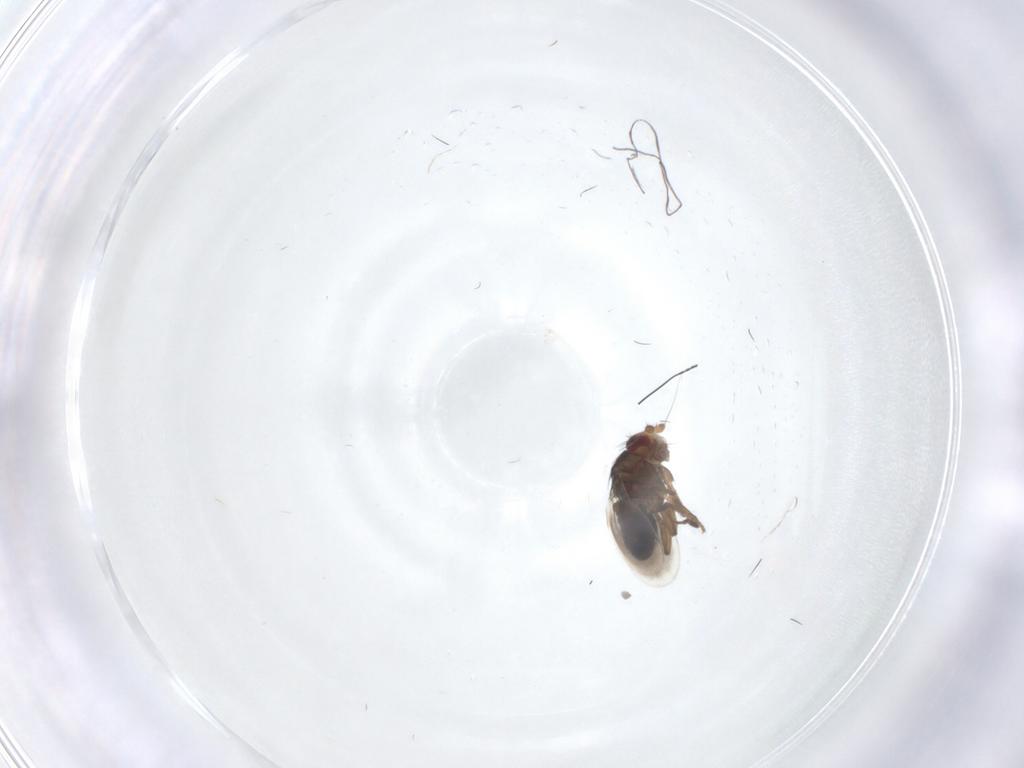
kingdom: Animalia
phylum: Arthropoda
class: Insecta
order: Diptera
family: Sphaeroceridae
